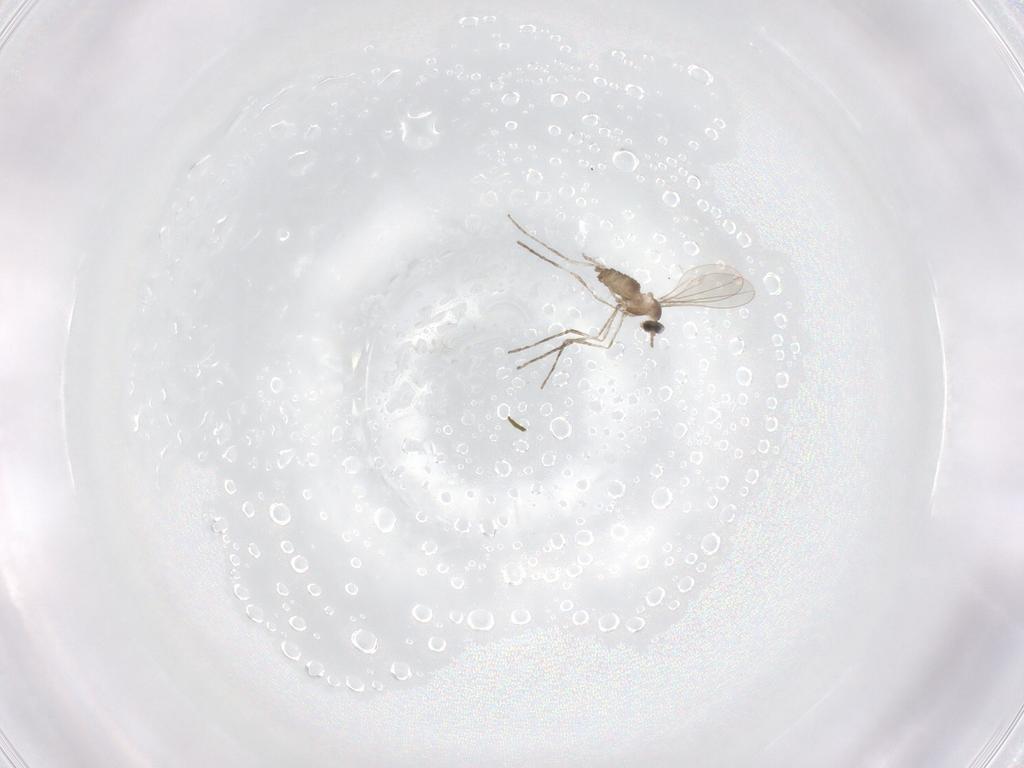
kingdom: Animalia
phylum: Arthropoda
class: Insecta
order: Diptera
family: Cecidomyiidae
